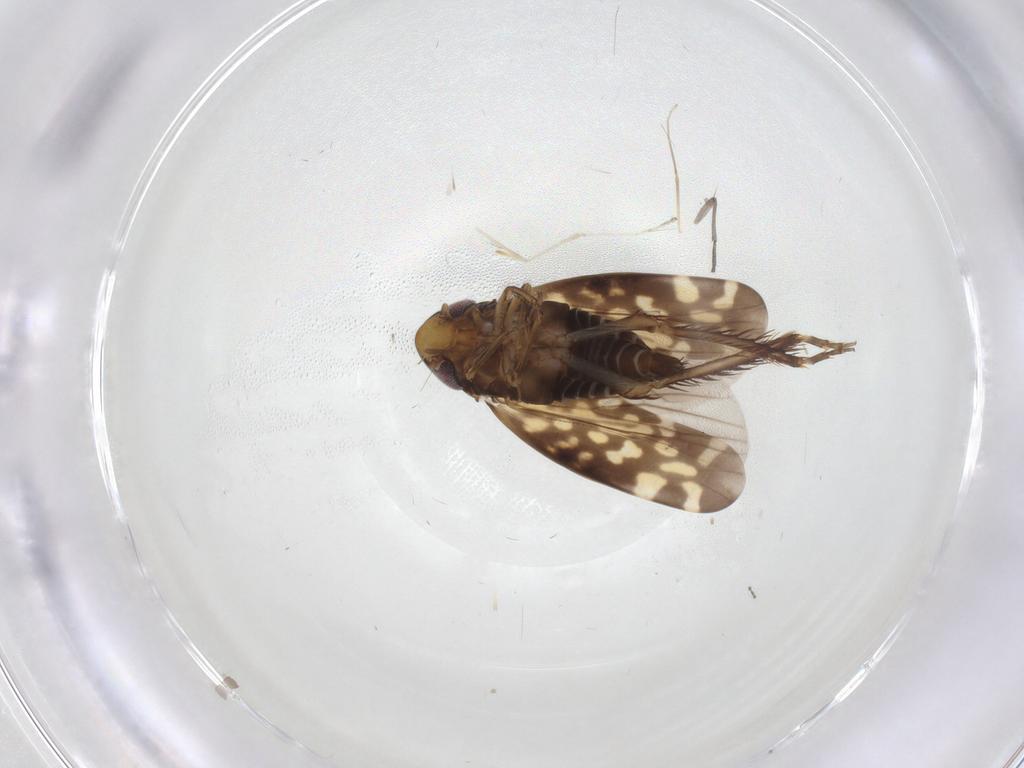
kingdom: Animalia
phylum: Arthropoda
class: Insecta
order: Hemiptera
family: Cicadellidae
